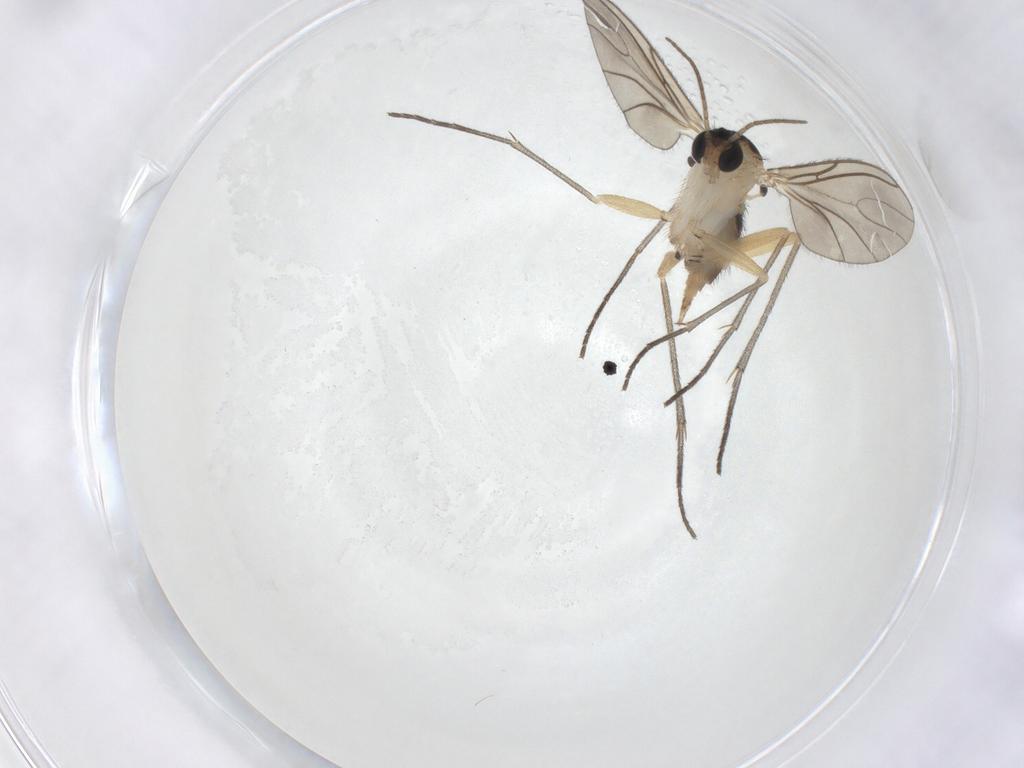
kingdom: Animalia
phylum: Arthropoda
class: Insecta
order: Diptera
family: Sciaridae
